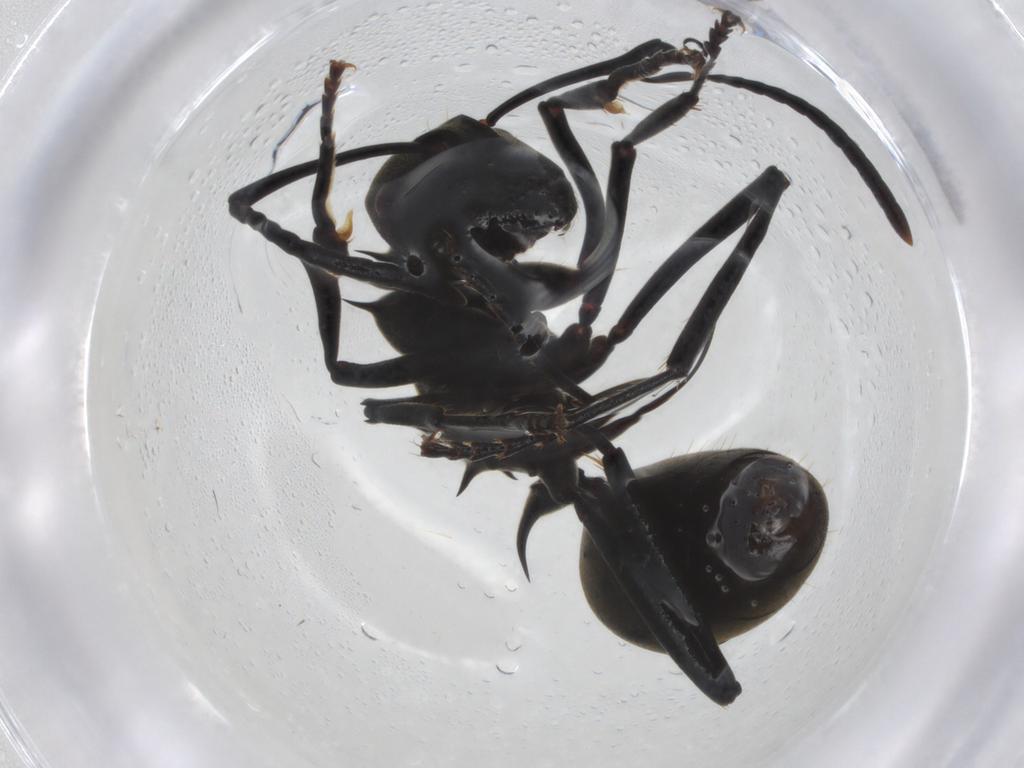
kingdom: Animalia
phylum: Arthropoda
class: Insecta
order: Hymenoptera
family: Formicidae
